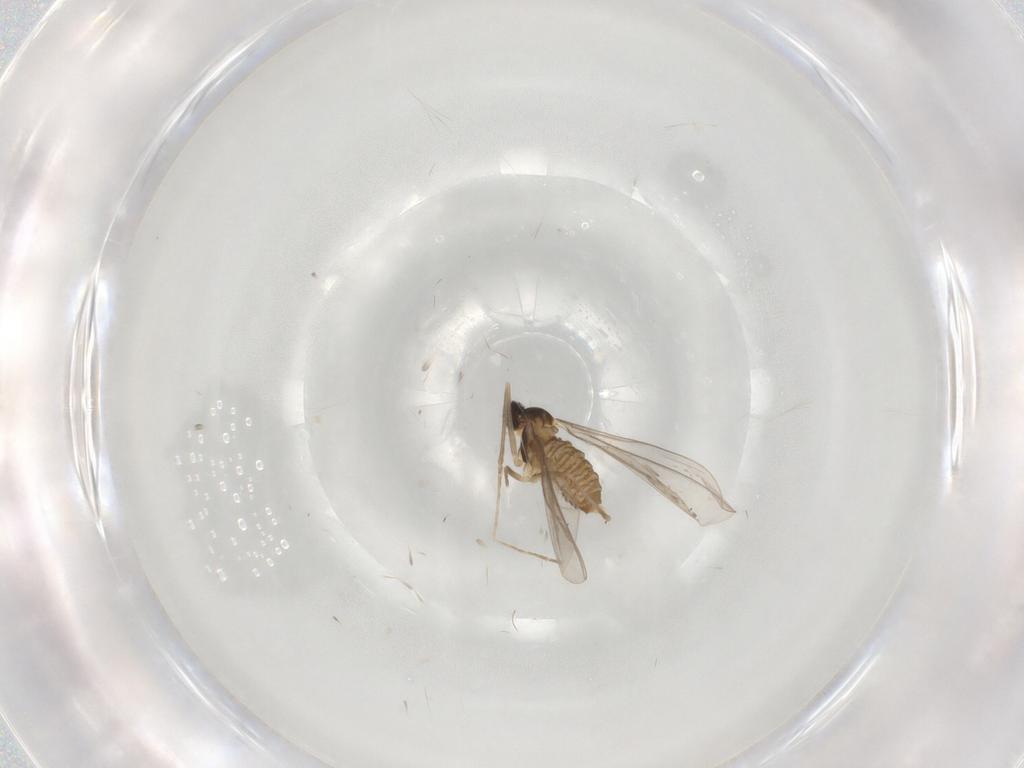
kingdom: Animalia
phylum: Arthropoda
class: Insecta
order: Diptera
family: Cecidomyiidae
